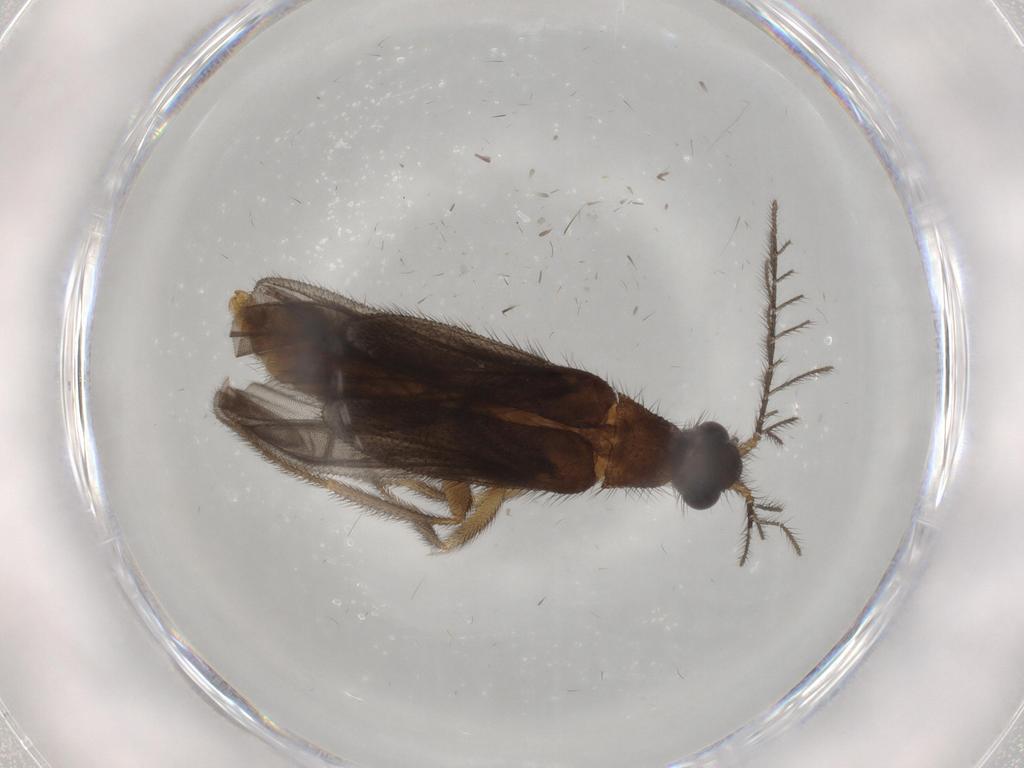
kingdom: Animalia
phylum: Arthropoda
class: Insecta
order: Coleoptera
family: Phengodidae
